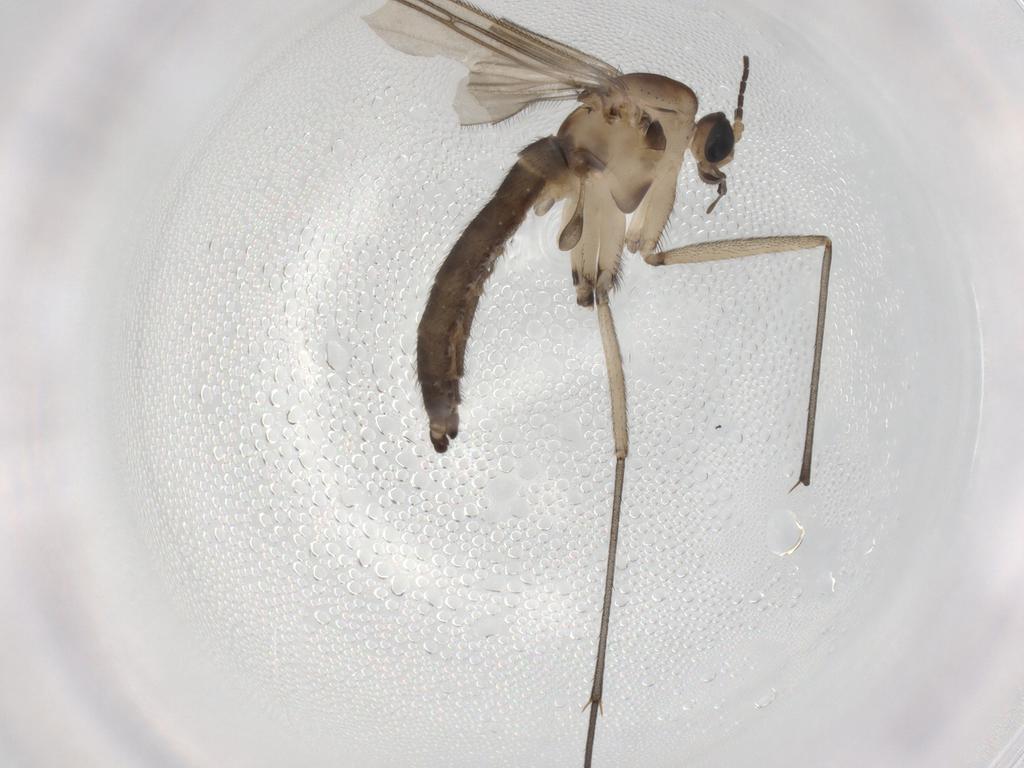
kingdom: Animalia
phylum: Arthropoda
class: Insecta
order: Diptera
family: Sciaridae
